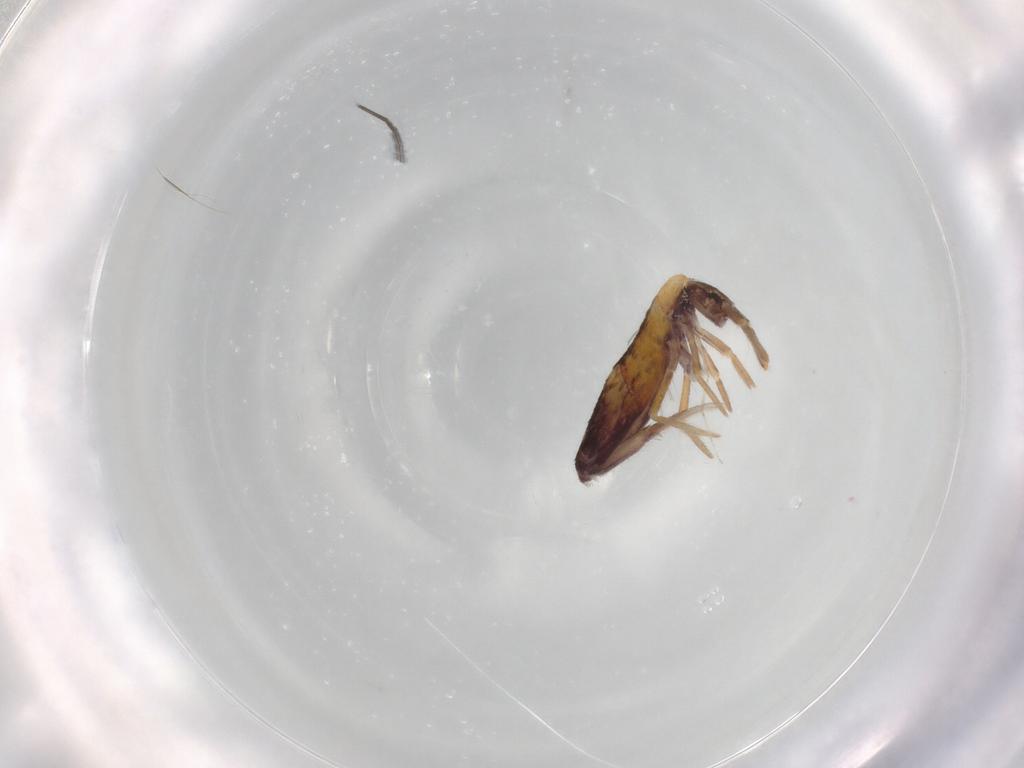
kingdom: Animalia
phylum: Arthropoda
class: Collembola
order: Entomobryomorpha
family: Entomobryidae
